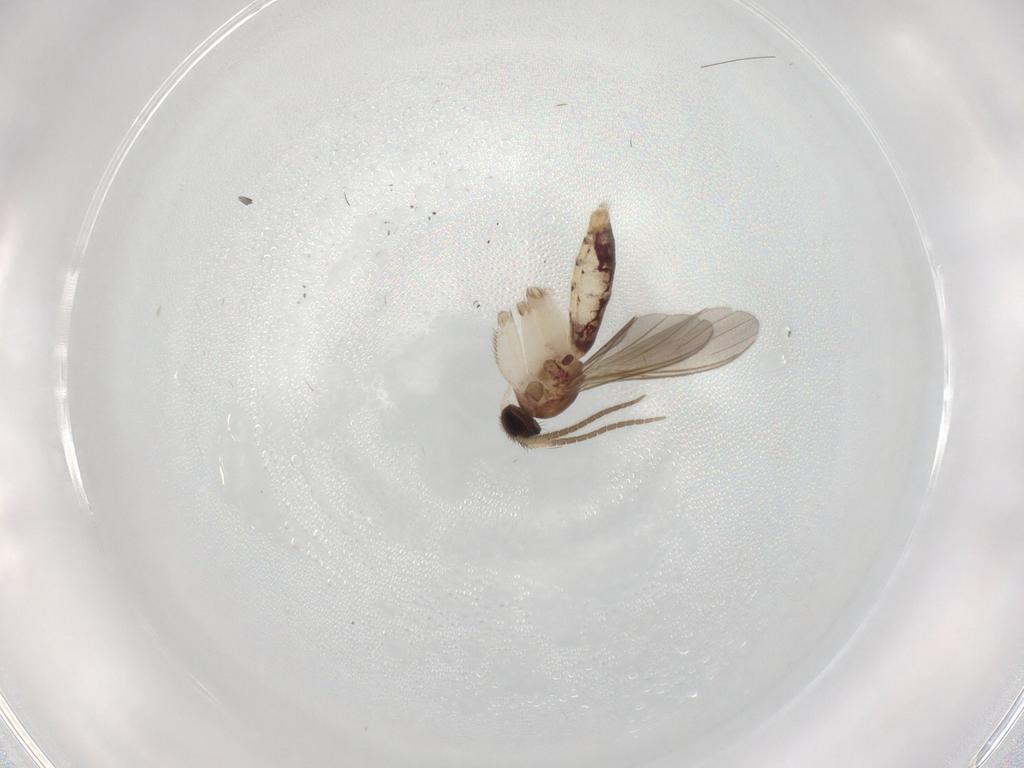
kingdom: Animalia
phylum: Arthropoda
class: Insecta
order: Diptera
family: Mycetophilidae
